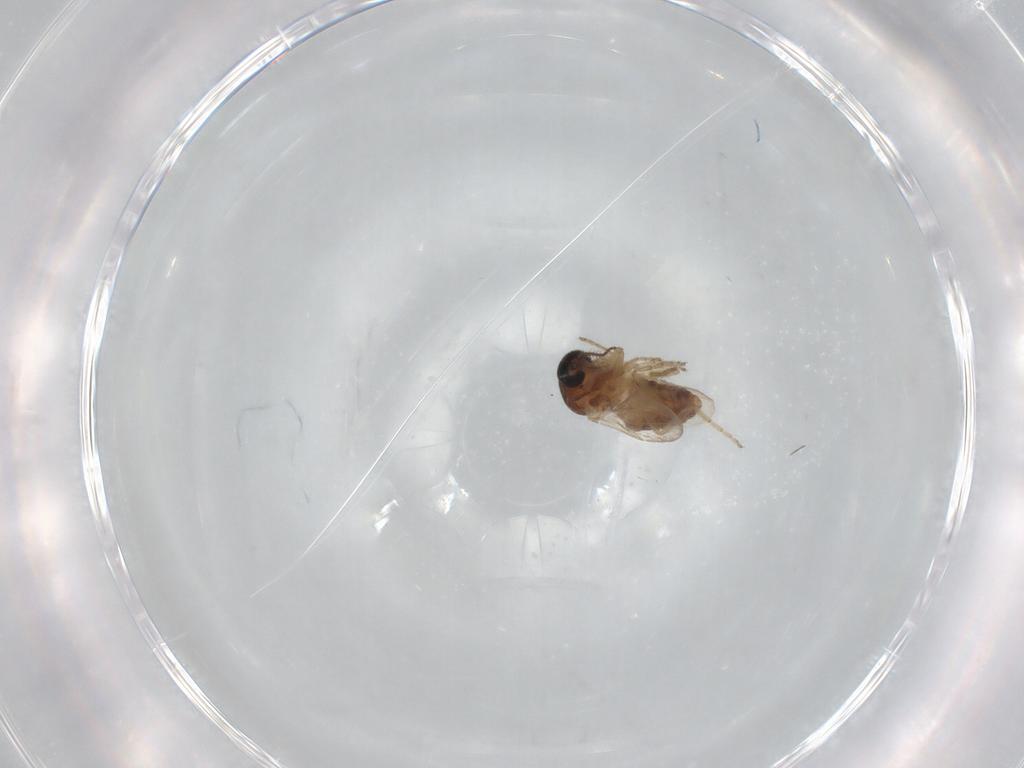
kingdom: Animalia
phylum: Arthropoda
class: Insecta
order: Diptera
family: Ceratopogonidae
